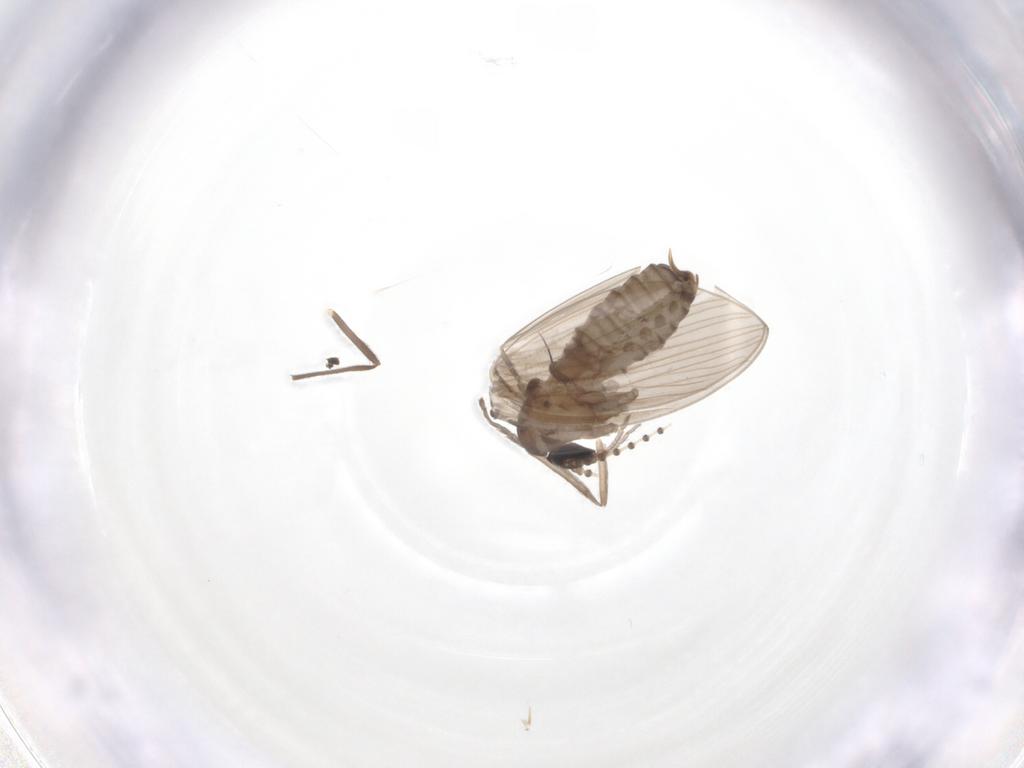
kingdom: Animalia
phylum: Arthropoda
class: Insecta
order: Diptera
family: Psychodidae
